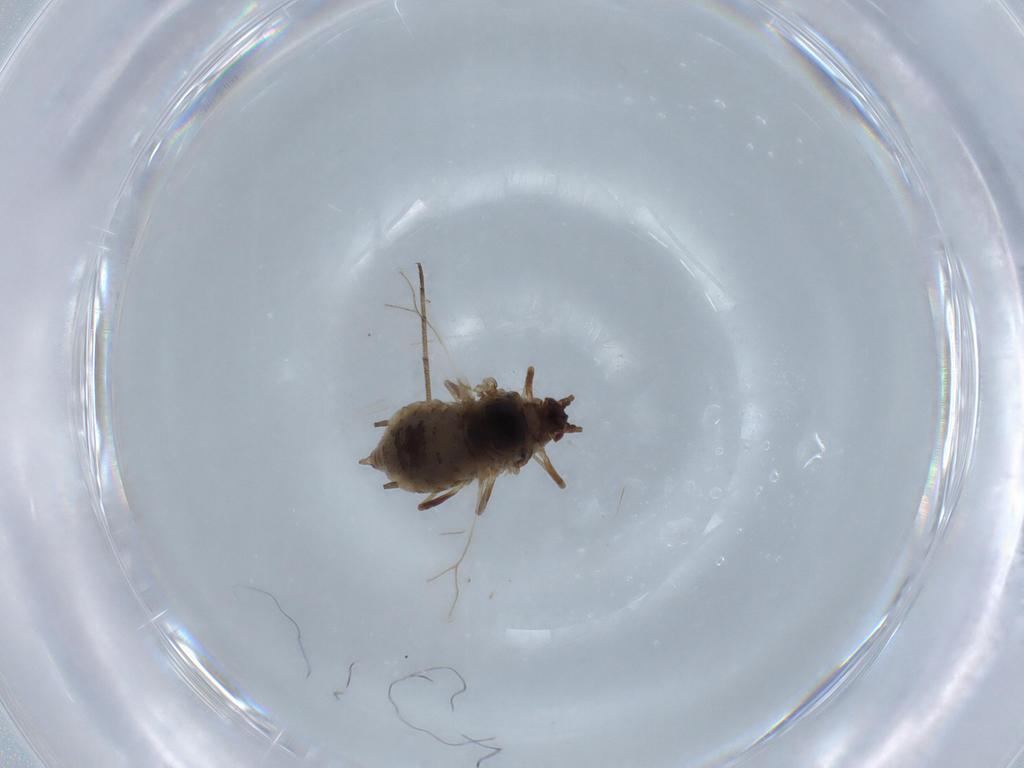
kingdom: Animalia
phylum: Arthropoda
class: Insecta
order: Hemiptera
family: Aphididae
